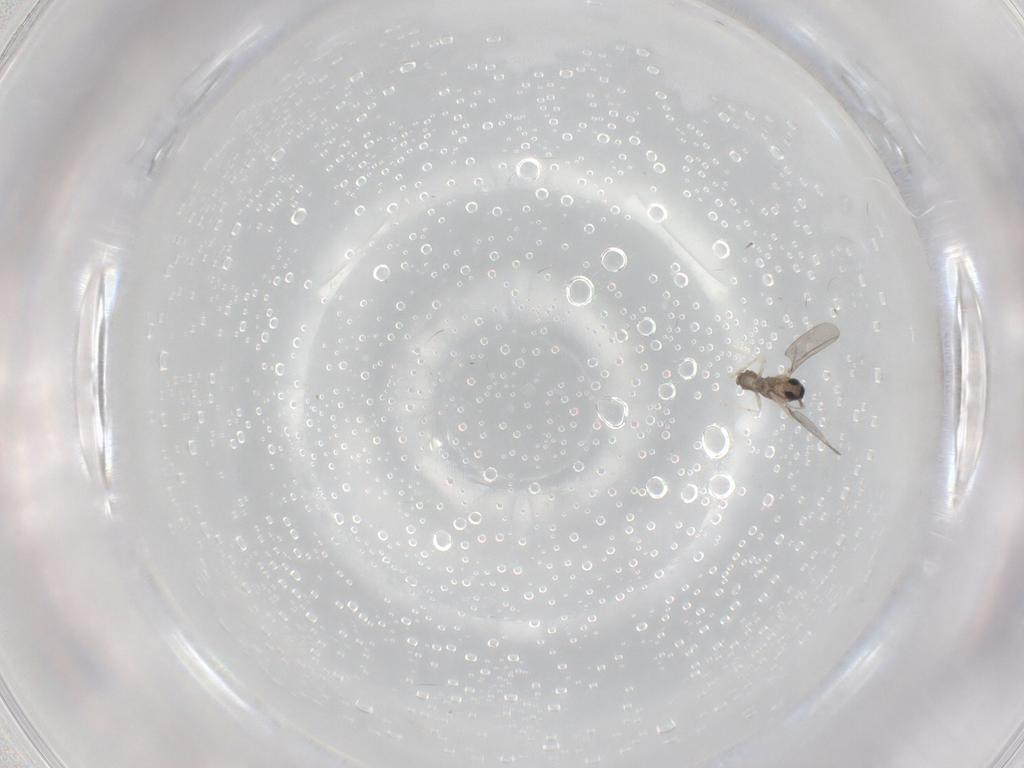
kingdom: Animalia
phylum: Arthropoda
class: Insecta
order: Diptera
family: Cecidomyiidae
